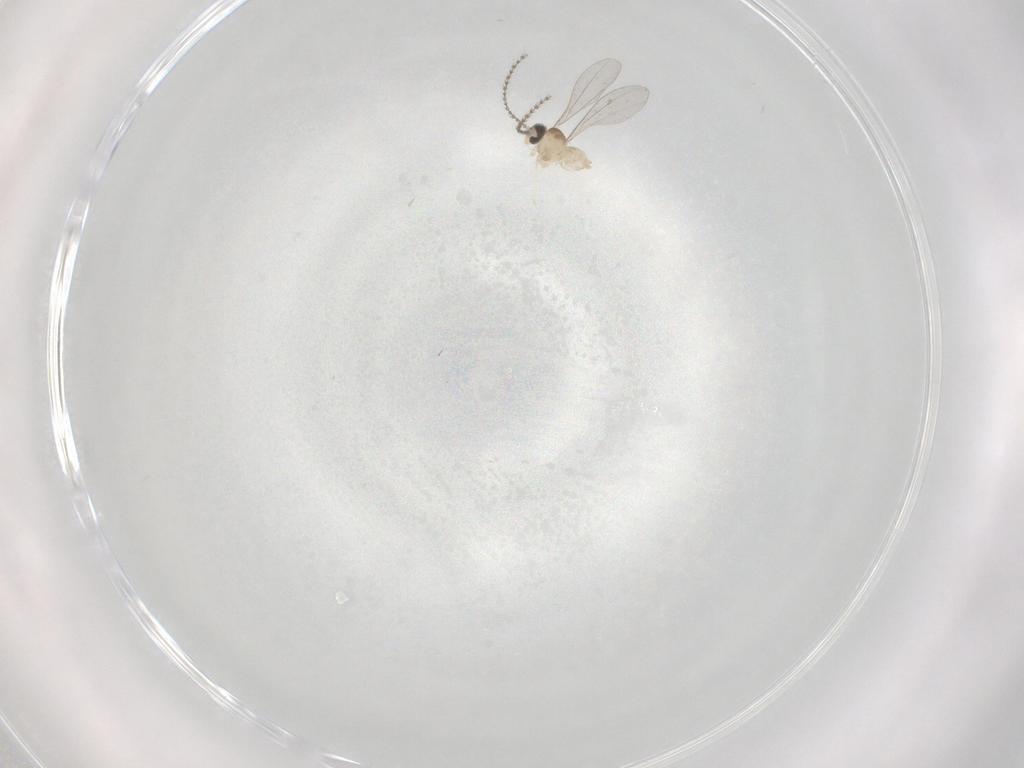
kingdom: Animalia
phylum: Arthropoda
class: Insecta
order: Diptera
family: Cecidomyiidae
